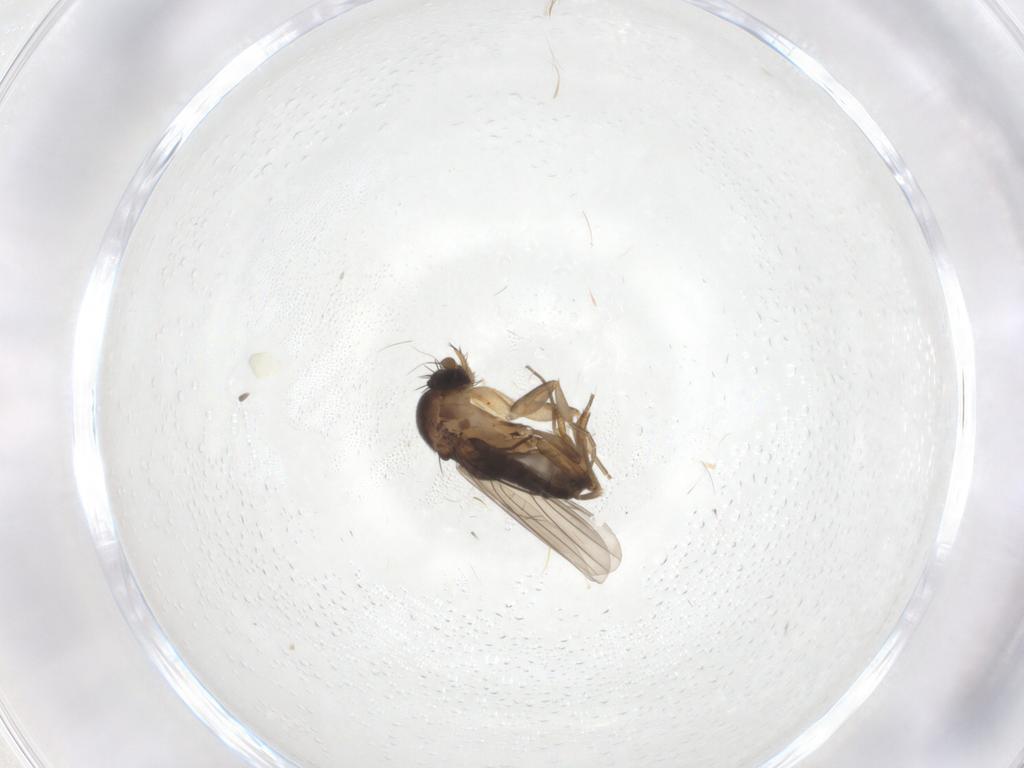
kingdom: Animalia
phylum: Arthropoda
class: Insecta
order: Diptera
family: Phoridae
